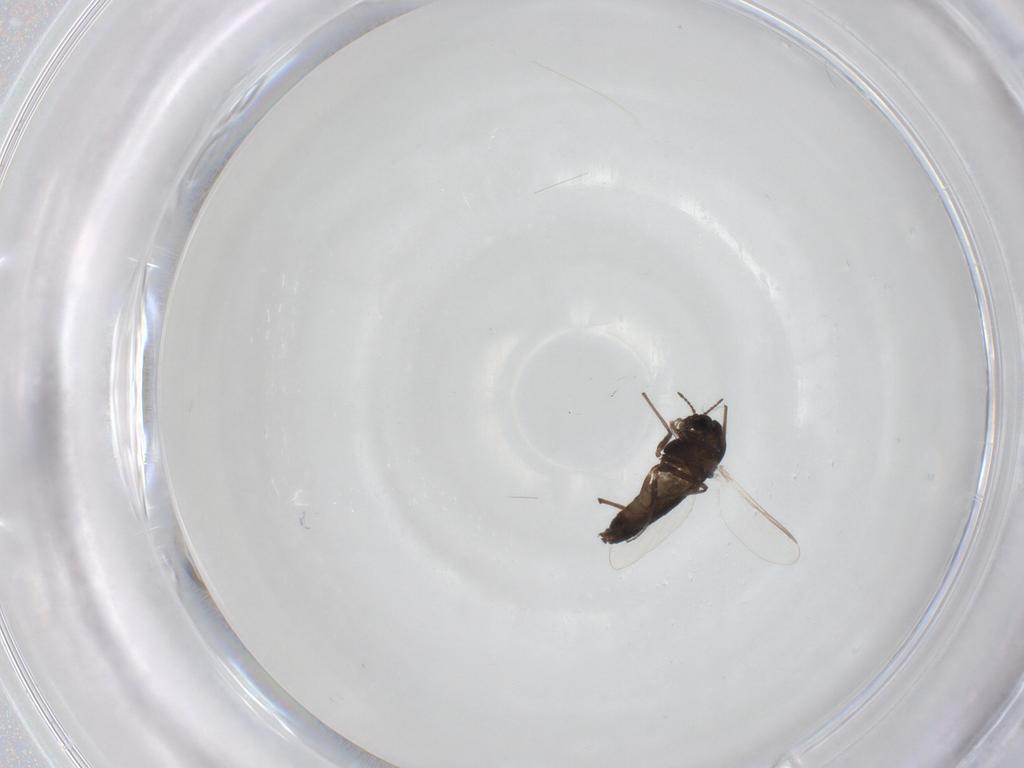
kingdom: Animalia
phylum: Arthropoda
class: Insecta
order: Diptera
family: Chironomidae
